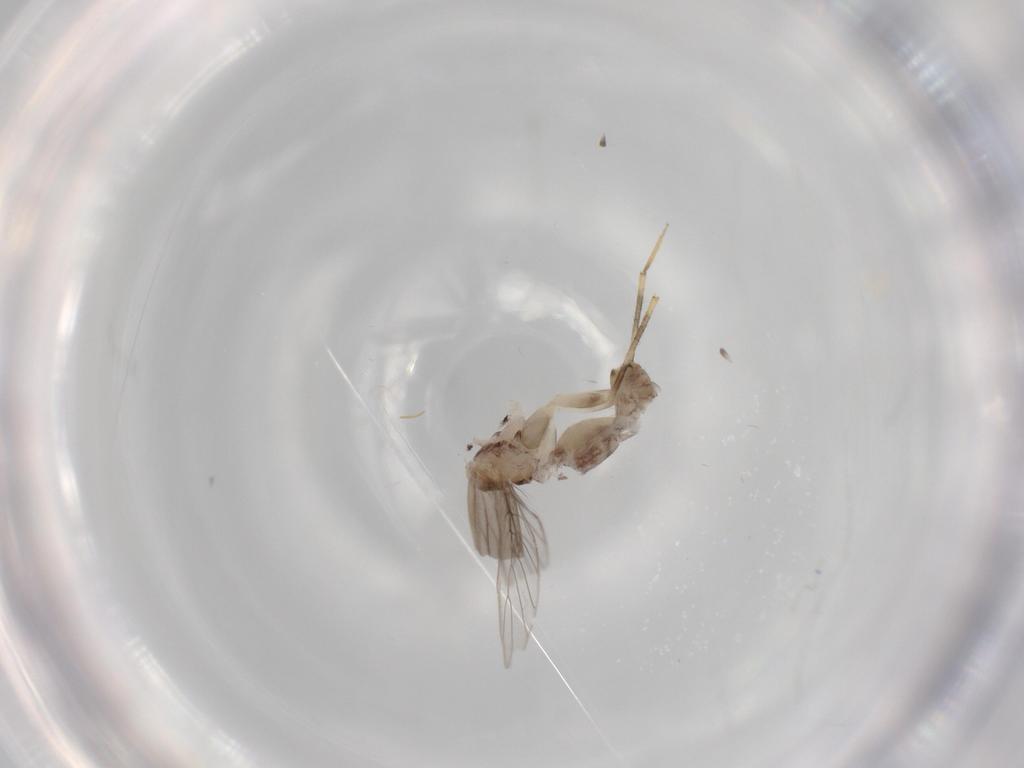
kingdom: Animalia
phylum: Arthropoda
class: Insecta
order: Psocodea
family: Lepidopsocidae
